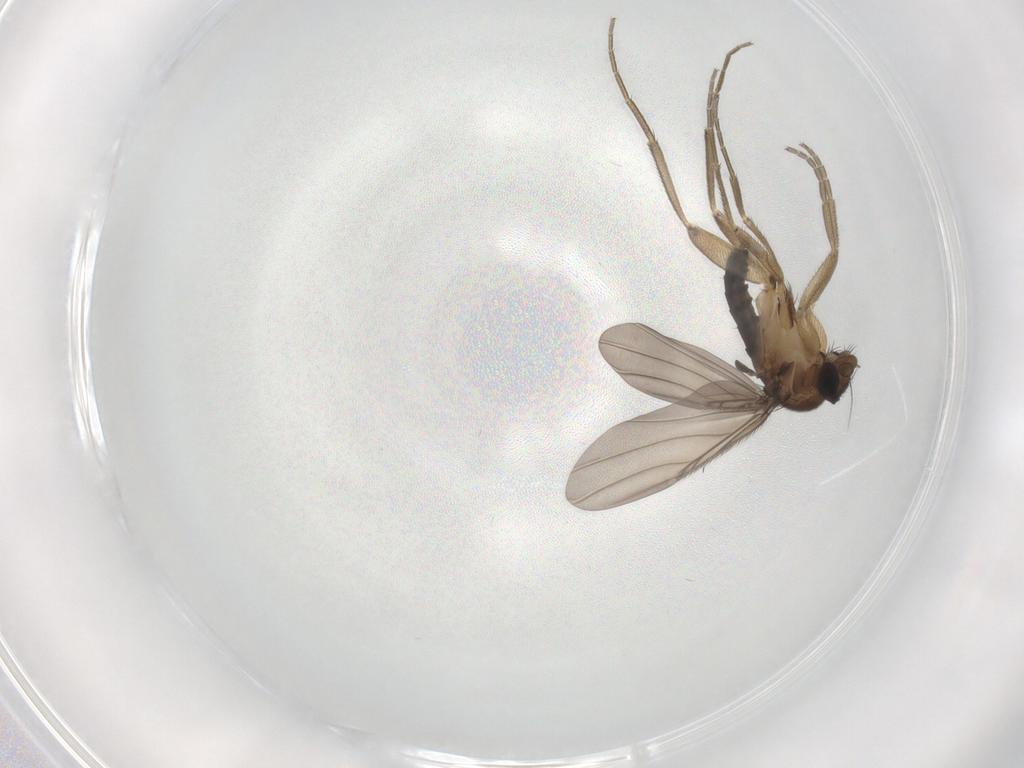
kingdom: Animalia
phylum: Arthropoda
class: Insecta
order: Diptera
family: Phoridae
